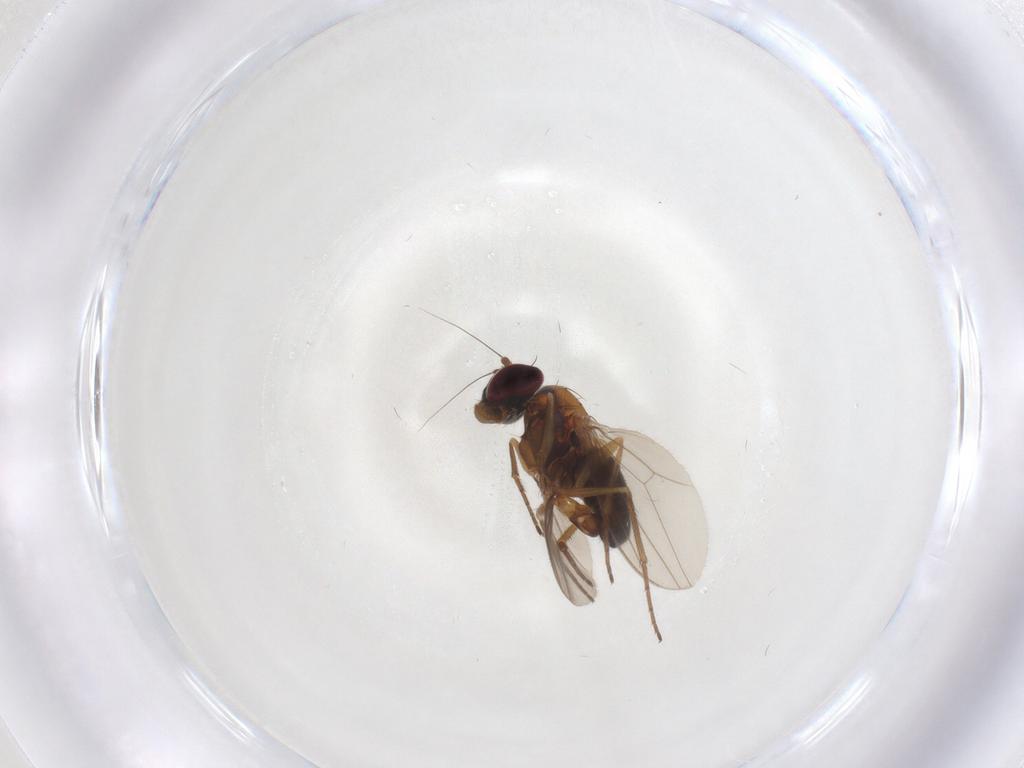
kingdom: Animalia
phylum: Arthropoda
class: Insecta
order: Diptera
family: Dolichopodidae
